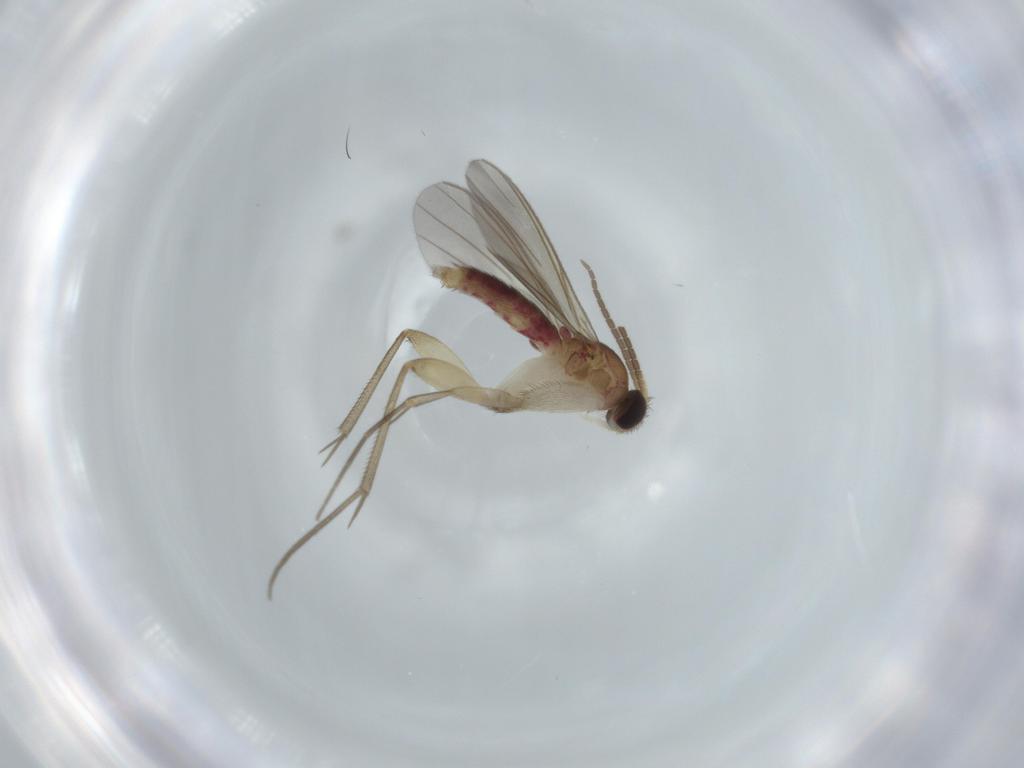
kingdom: Animalia
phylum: Arthropoda
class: Insecta
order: Diptera
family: Mycetophilidae
